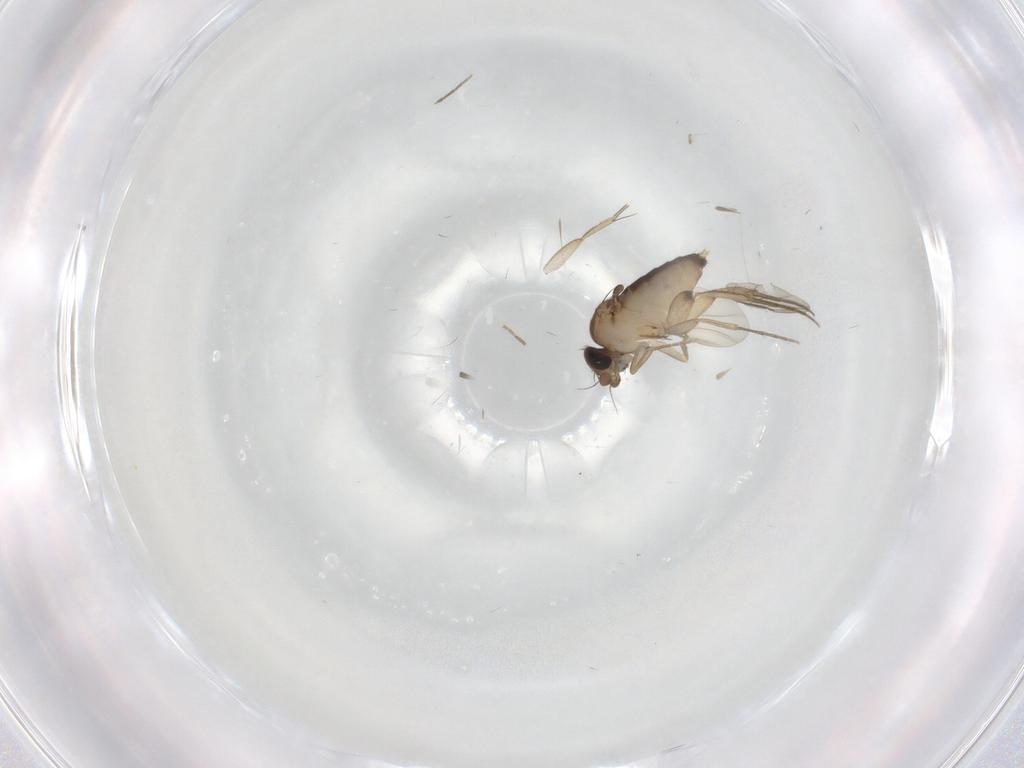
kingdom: Animalia
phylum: Arthropoda
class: Insecta
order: Diptera
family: Phoridae
